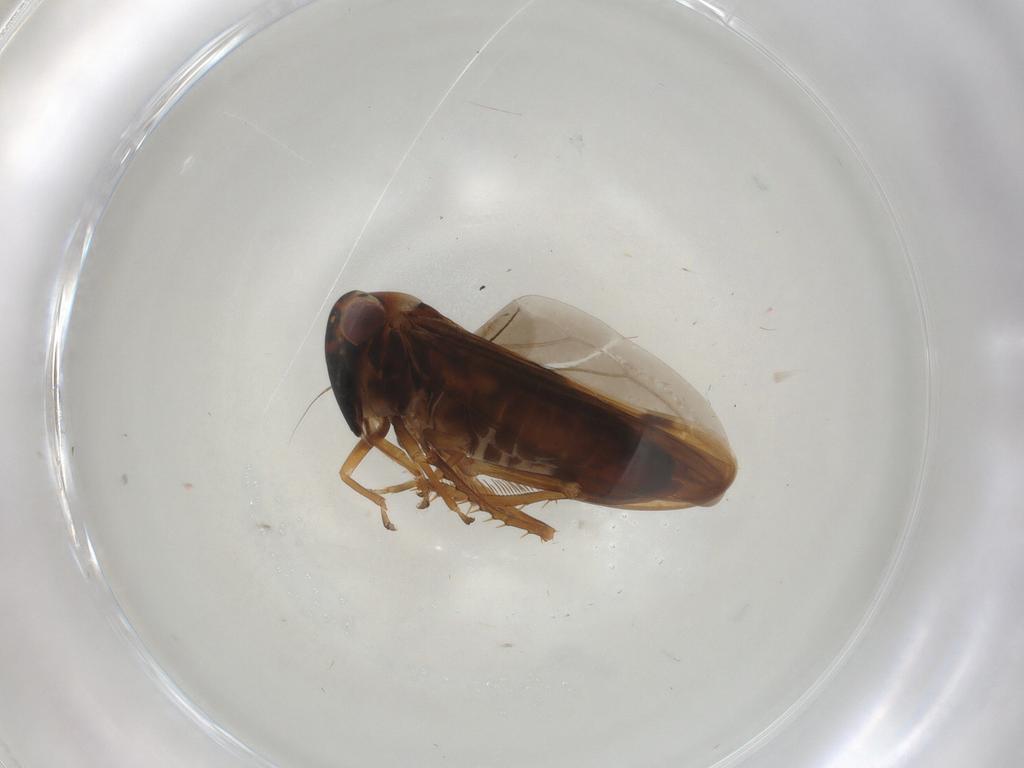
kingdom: Animalia
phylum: Arthropoda
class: Insecta
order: Hemiptera
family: Cicadellidae
